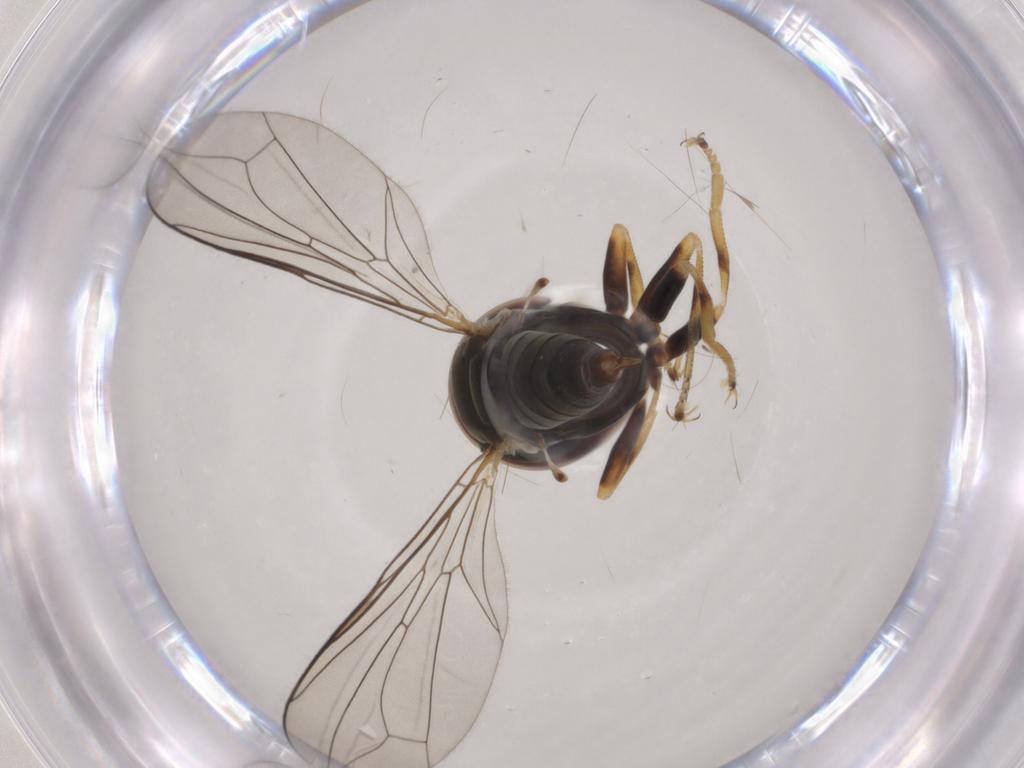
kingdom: Animalia
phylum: Arthropoda
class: Insecta
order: Diptera
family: Pipunculidae
